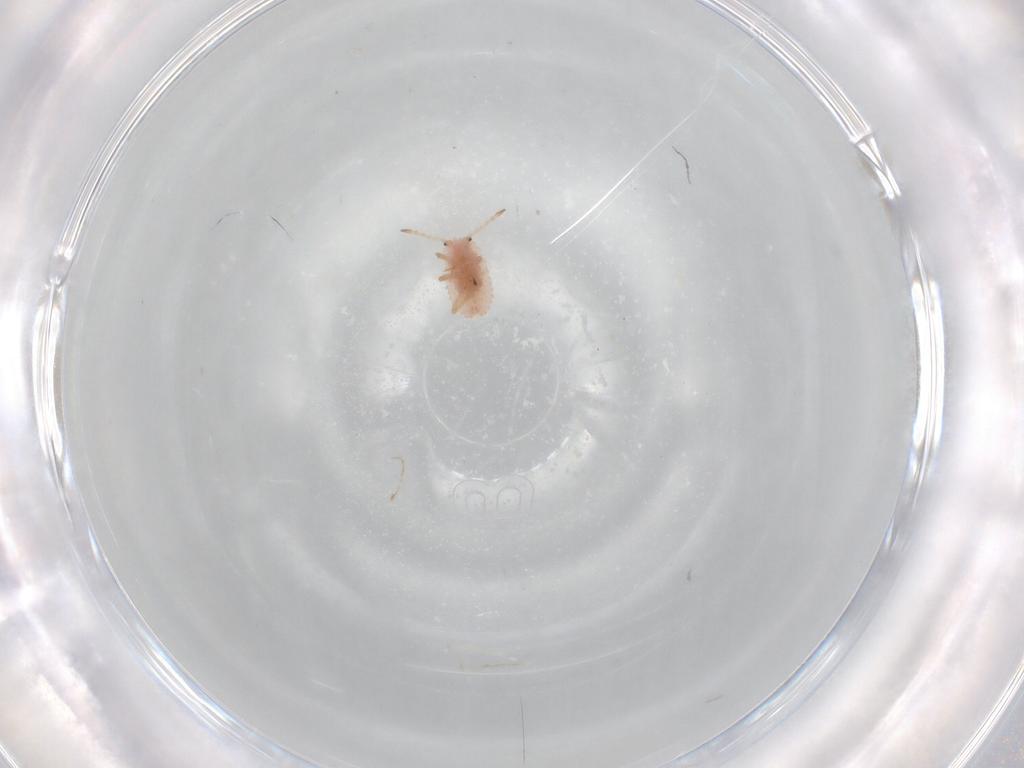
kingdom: Animalia
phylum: Arthropoda
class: Insecta
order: Hemiptera
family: Coccoidea_incertae_sedis
